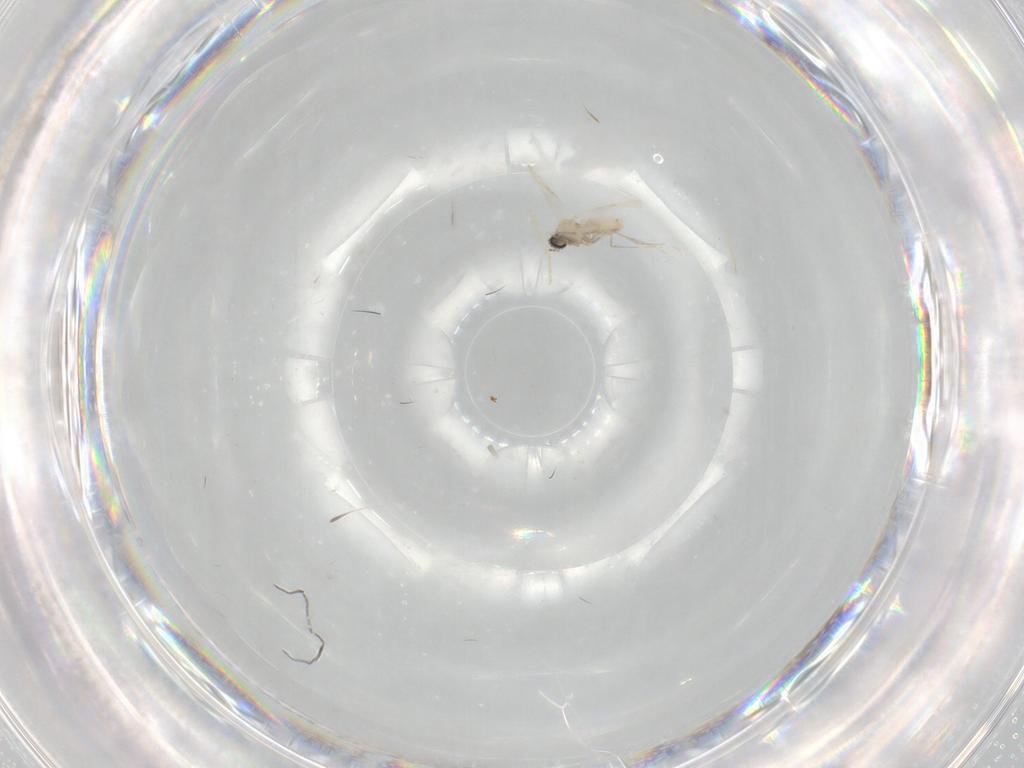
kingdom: Animalia
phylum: Arthropoda
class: Insecta
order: Diptera
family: Cecidomyiidae
